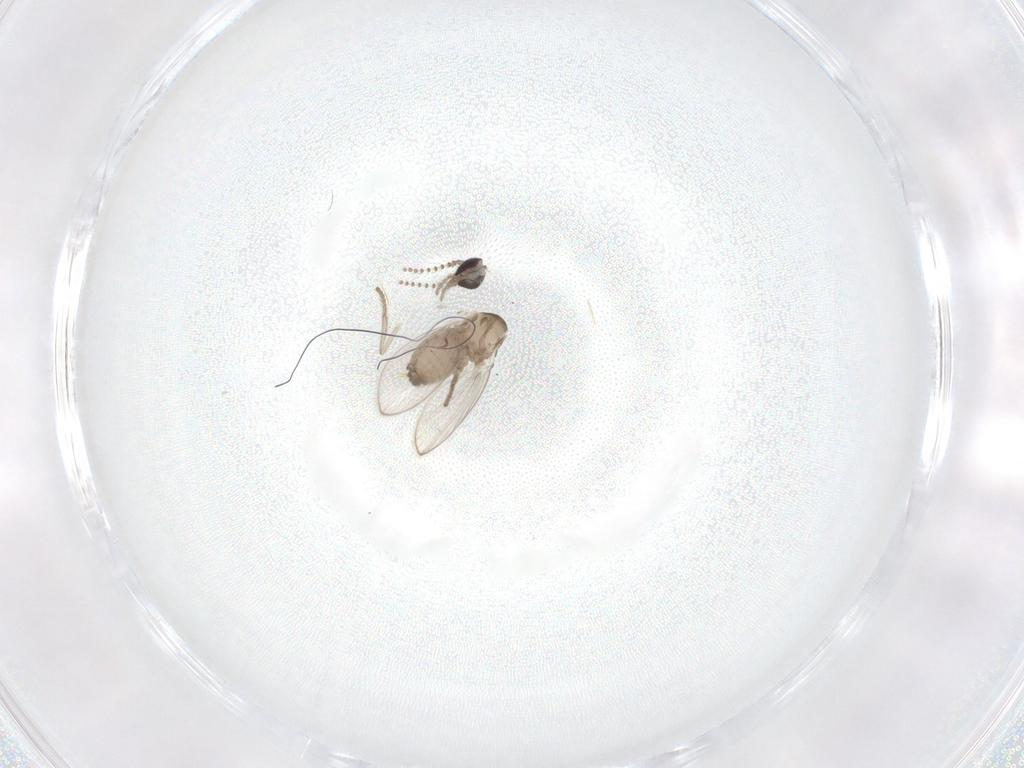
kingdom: Animalia
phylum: Arthropoda
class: Insecta
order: Diptera
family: Psychodidae
